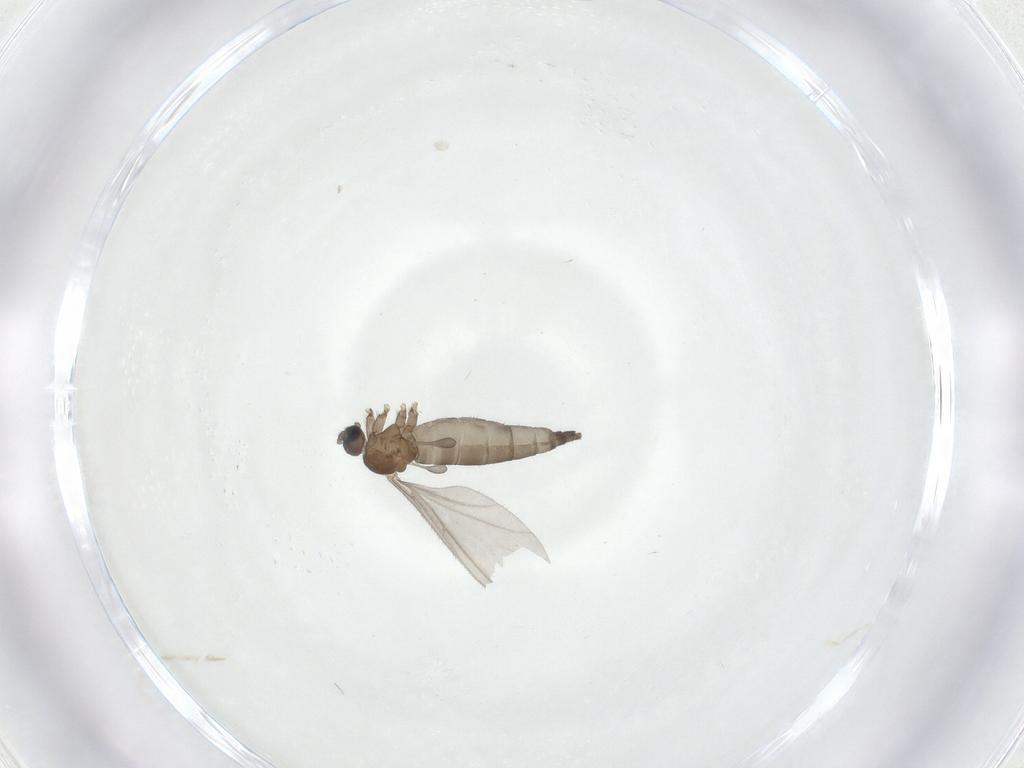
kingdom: Animalia
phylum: Arthropoda
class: Insecta
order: Diptera
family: Sciaridae
